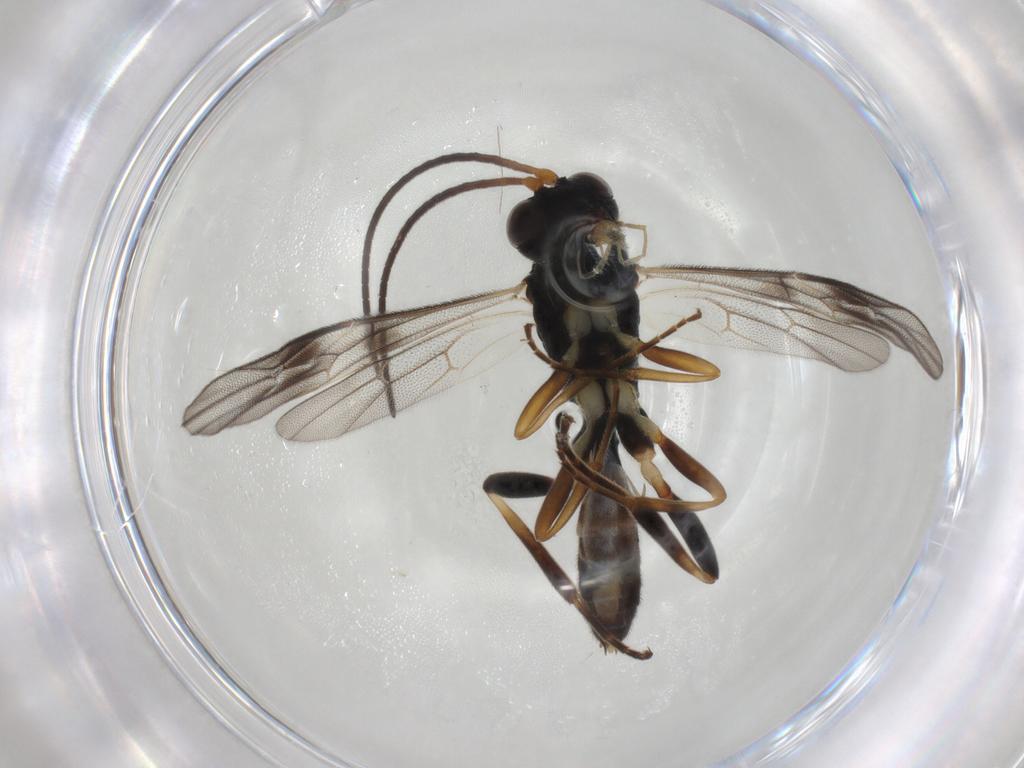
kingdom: Animalia
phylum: Arthropoda
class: Insecta
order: Hymenoptera
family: Ichneumonidae
